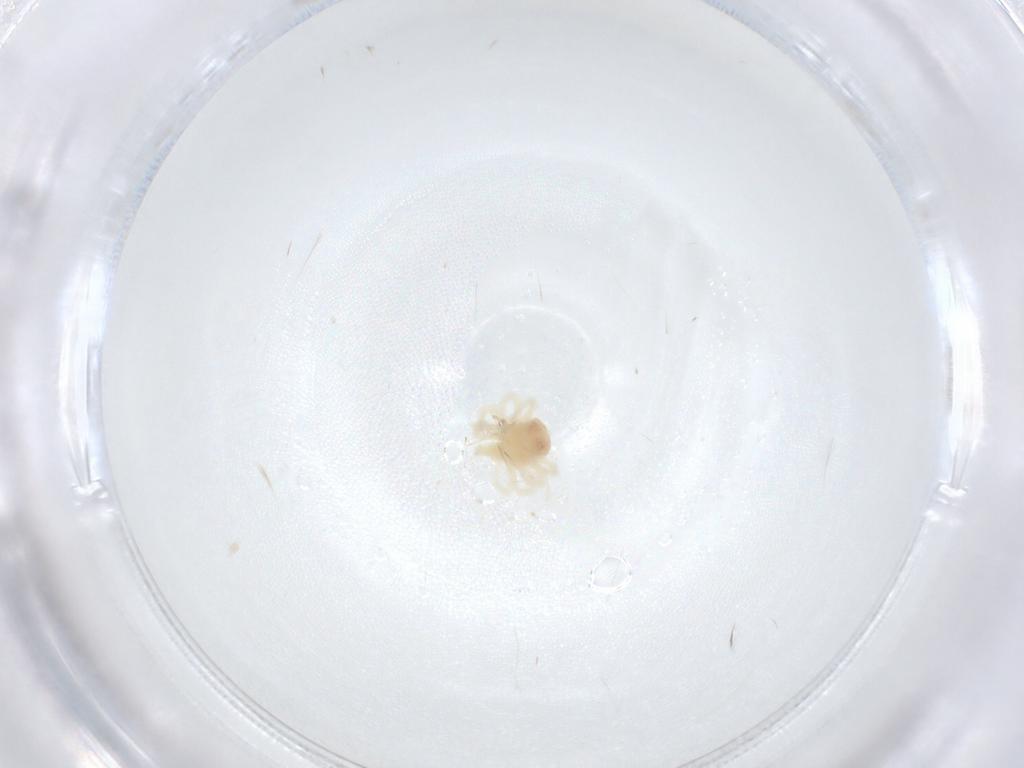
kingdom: Animalia
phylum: Arthropoda
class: Arachnida
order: Trombidiformes
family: Anystidae
